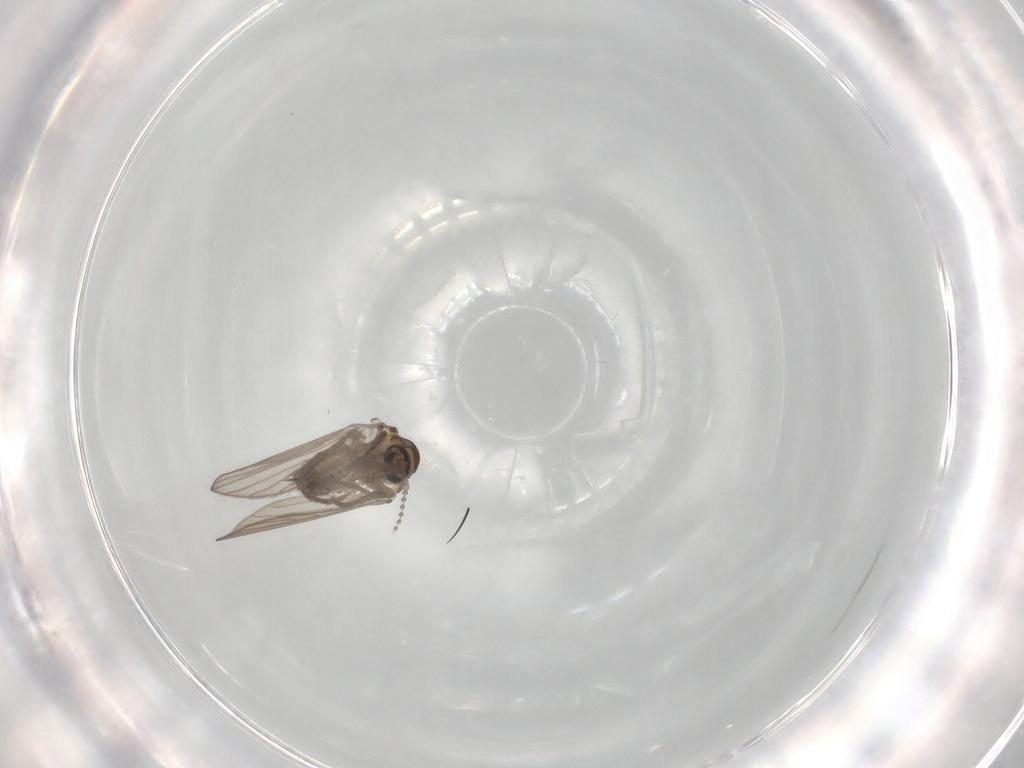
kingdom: Animalia
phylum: Arthropoda
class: Insecta
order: Diptera
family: Psychodidae
